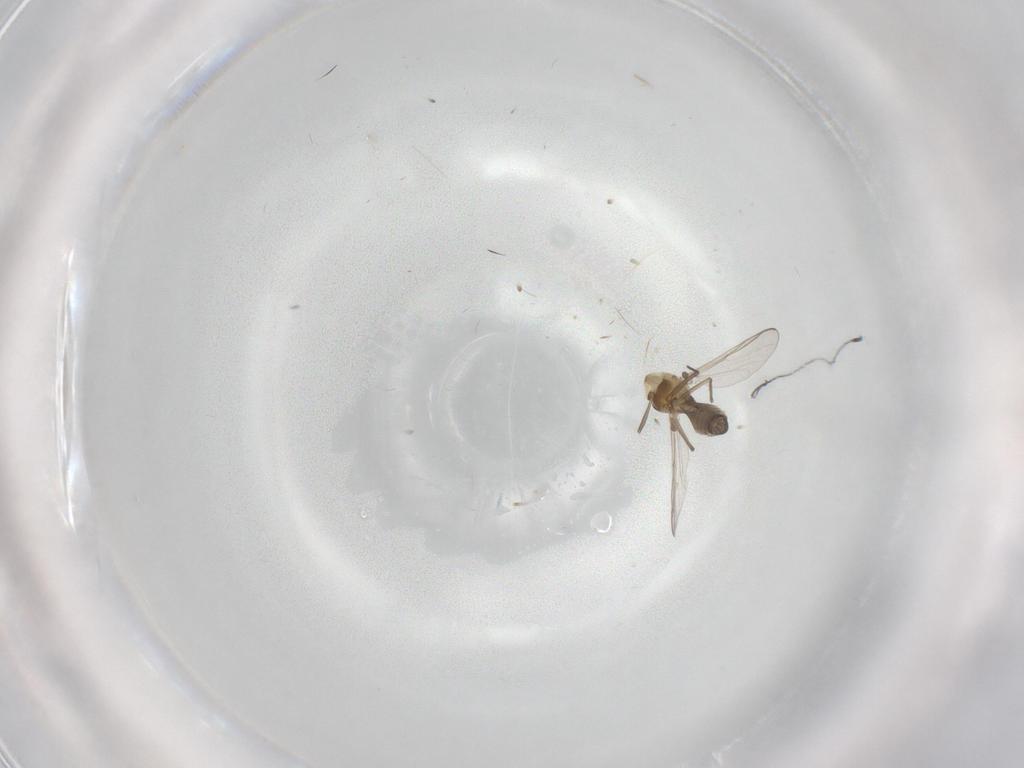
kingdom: Animalia
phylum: Arthropoda
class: Insecta
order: Diptera
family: Chironomidae
